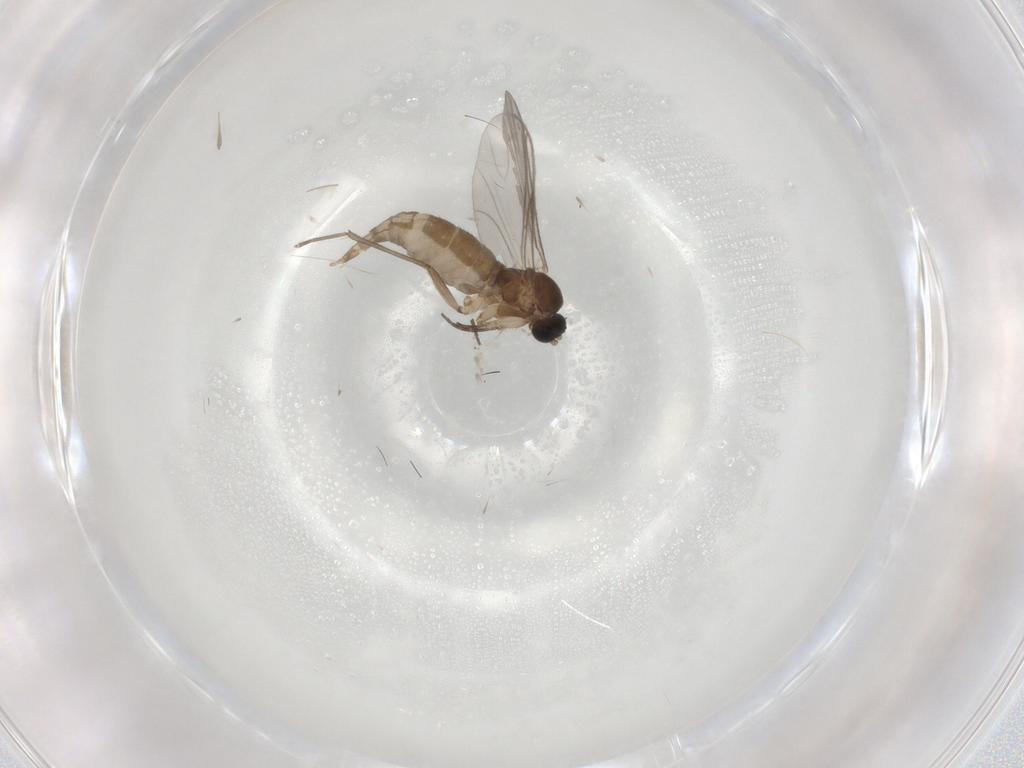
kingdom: Animalia
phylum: Arthropoda
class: Insecta
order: Diptera
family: Sciaridae
